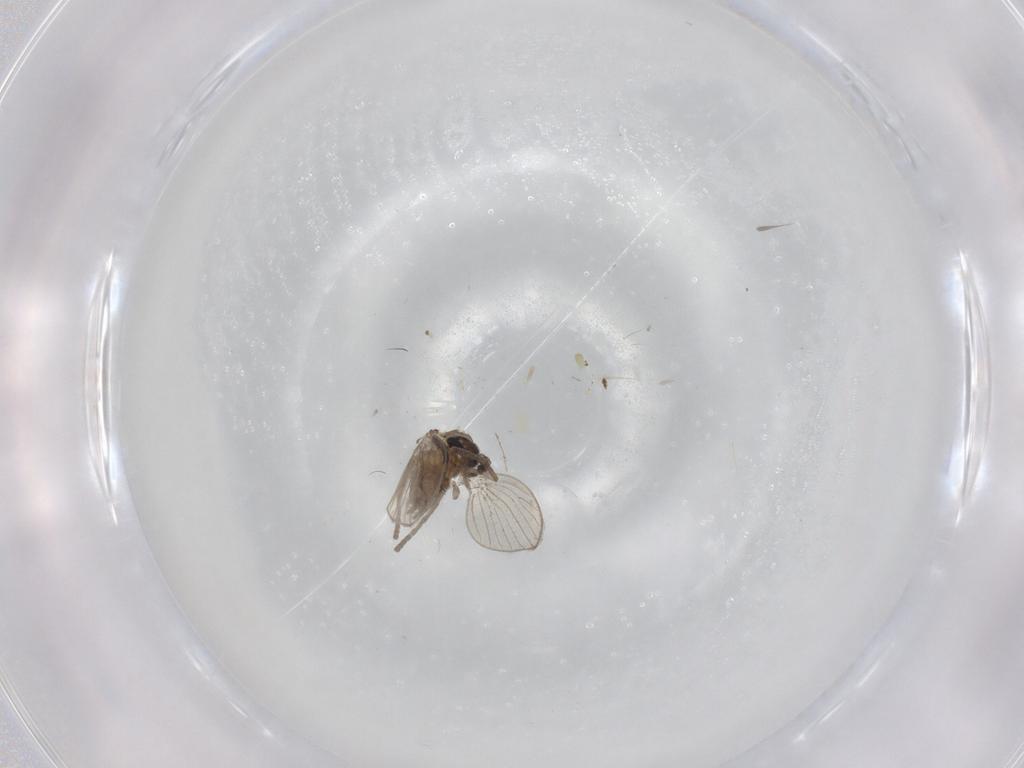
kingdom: Animalia
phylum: Arthropoda
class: Insecta
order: Diptera
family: Psychodidae
